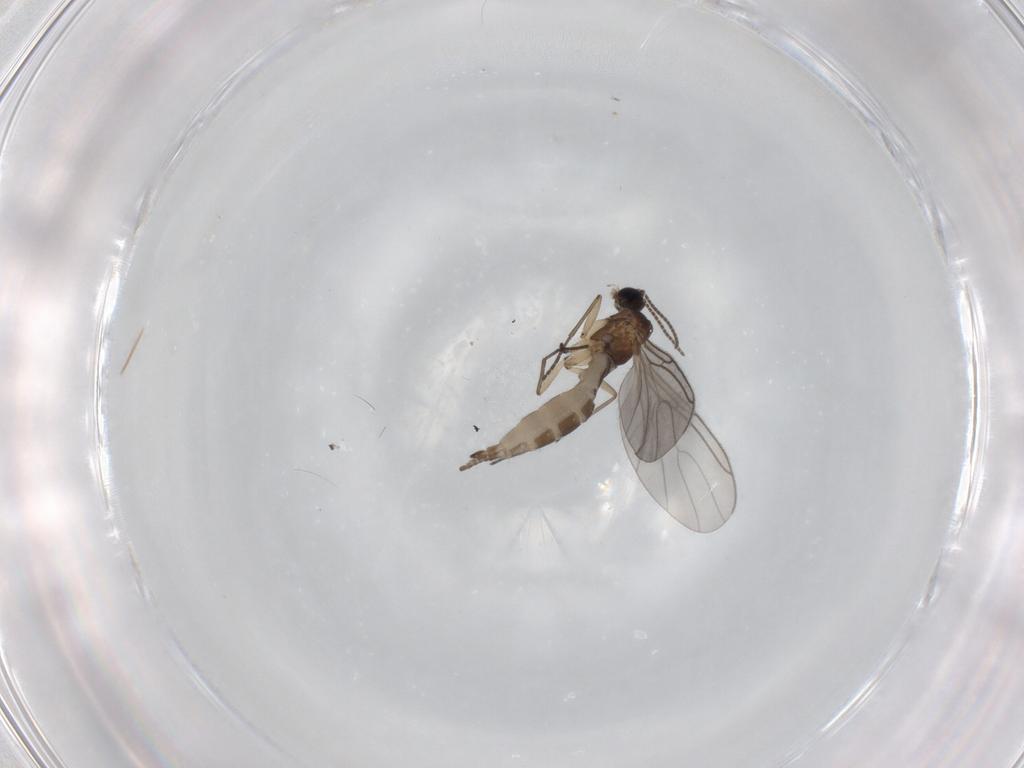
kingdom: Animalia
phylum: Arthropoda
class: Insecta
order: Diptera
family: Sciaridae
